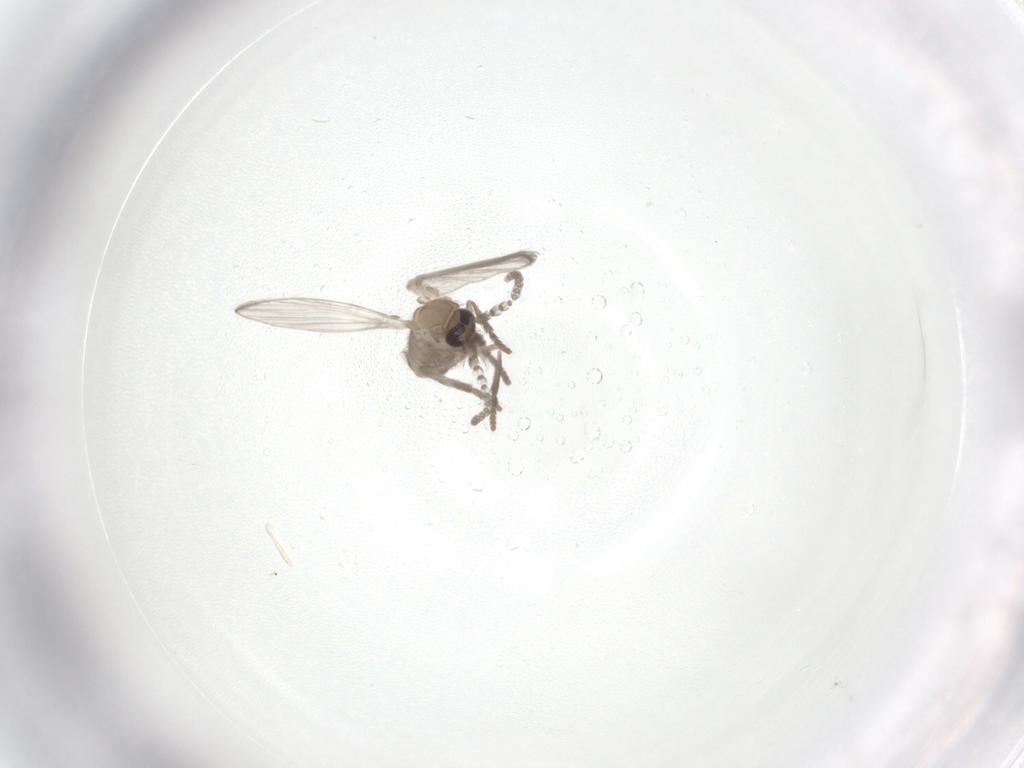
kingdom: Animalia
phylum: Arthropoda
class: Insecta
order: Diptera
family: Psychodidae
